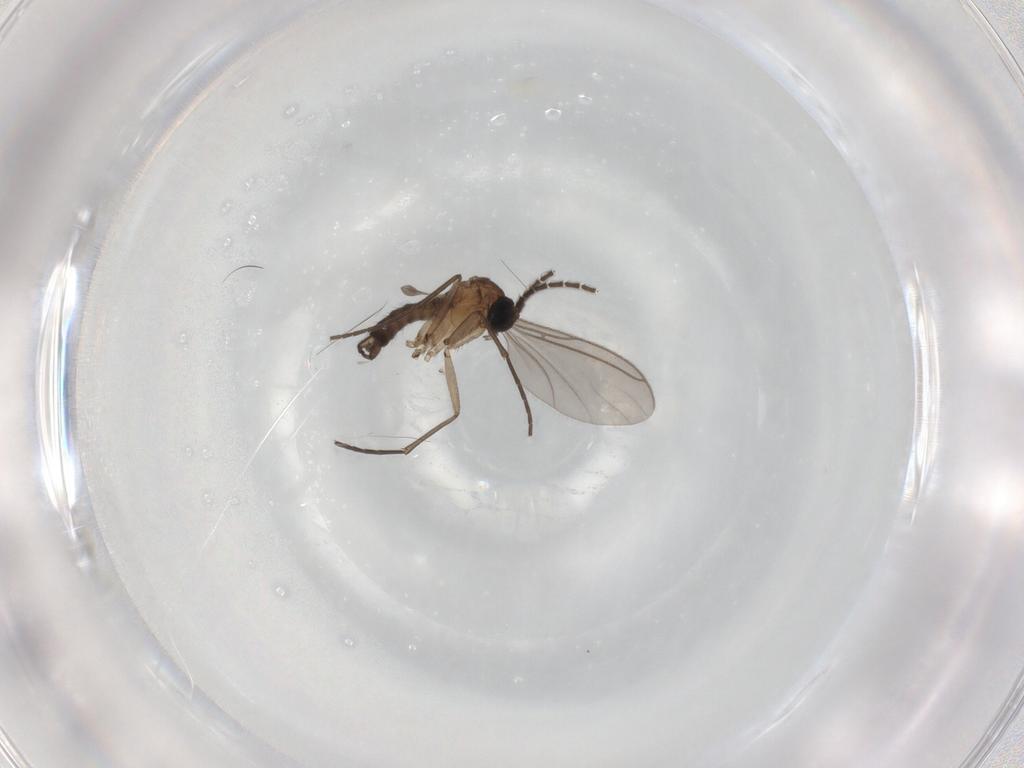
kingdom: Animalia
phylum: Arthropoda
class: Insecta
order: Diptera
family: Sciaridae
